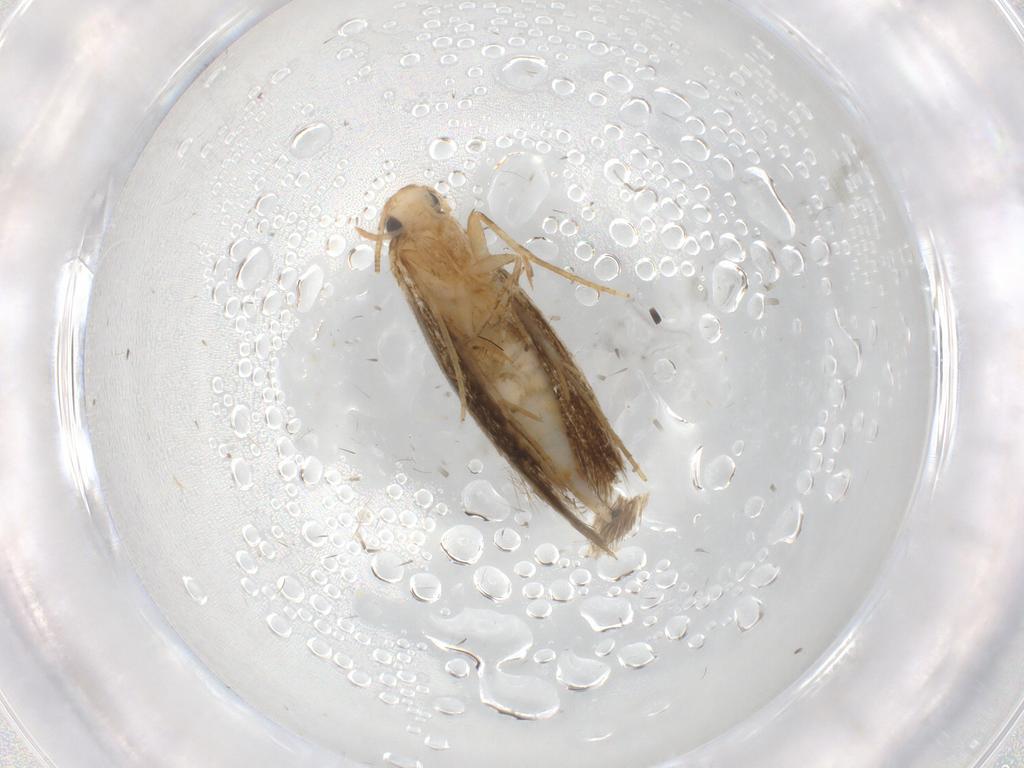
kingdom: Animalia
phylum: Arthropoda
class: Insecta
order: Lepidoptera
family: Tineidae
